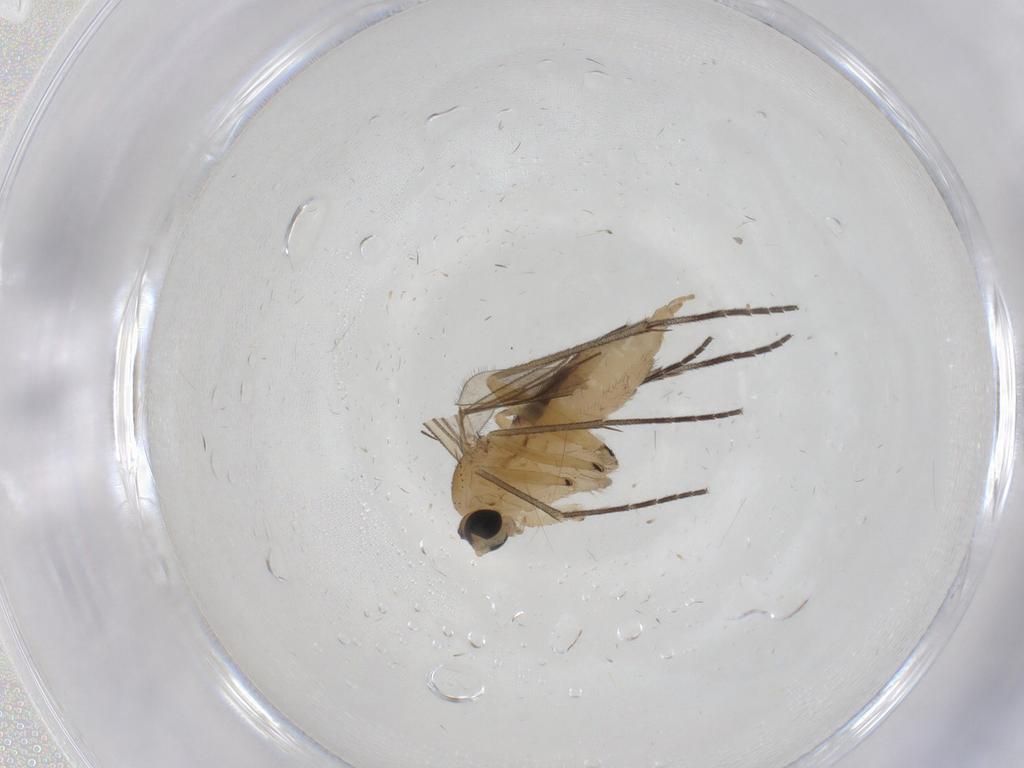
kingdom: Animalia
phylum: Arthropoda
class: Insecta
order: Diptera
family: Sciaridae
